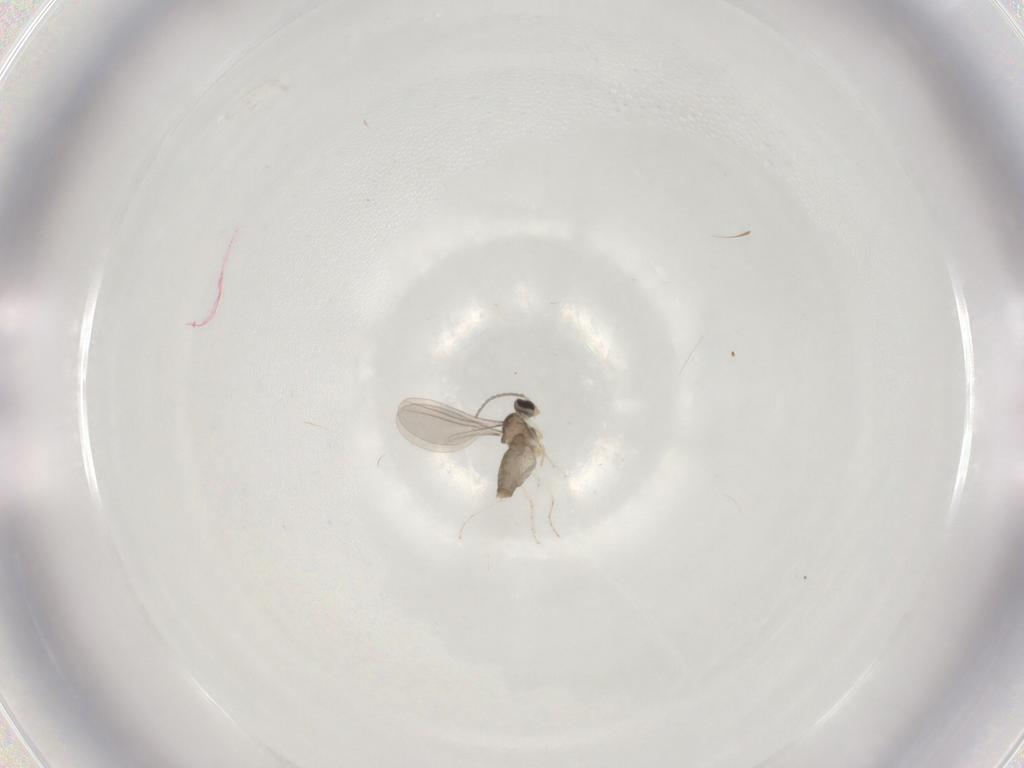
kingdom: Animalia
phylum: Arthropoda
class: Insecta
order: Diptera
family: Cecidomyiidae
